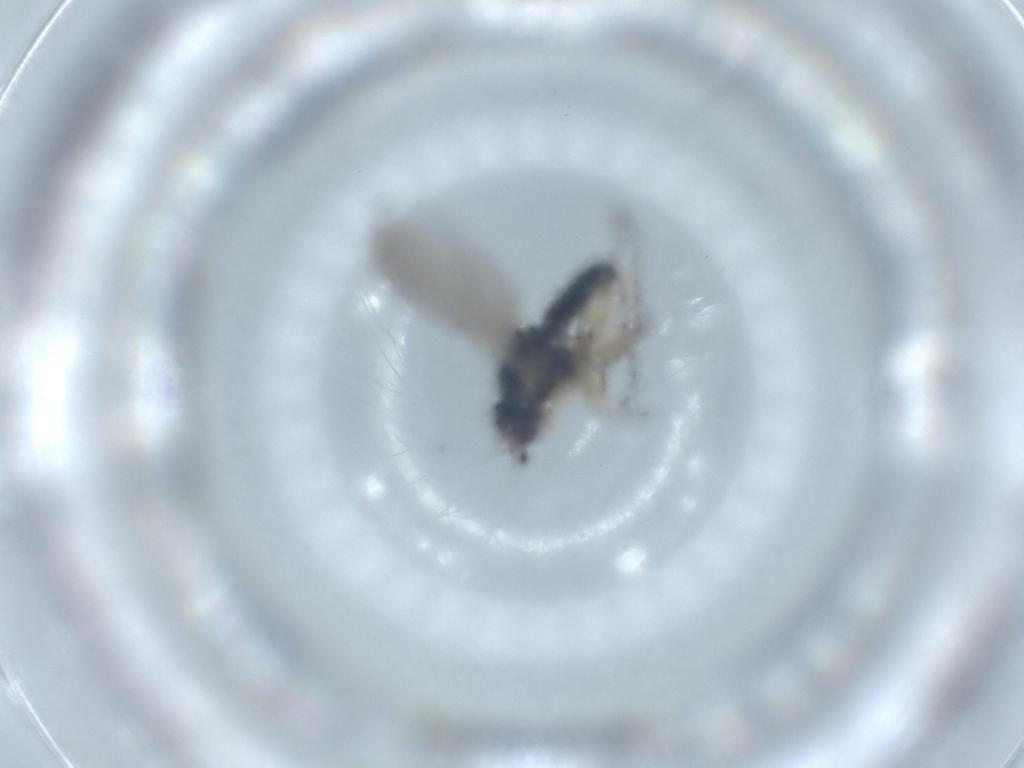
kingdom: Animalia
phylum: Arthropoda
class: Insecta
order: Diptera
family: Agromyzidae
